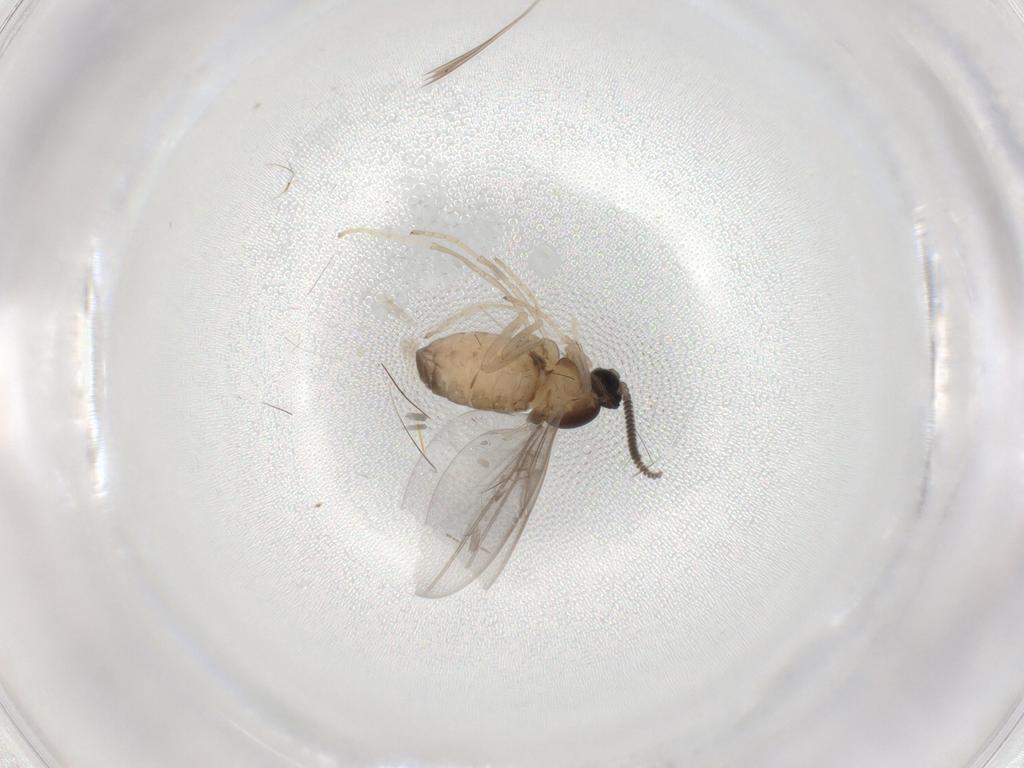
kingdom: Animalia
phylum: Arthropoda
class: Insecta
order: Diptera
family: Cecidomyiidae
